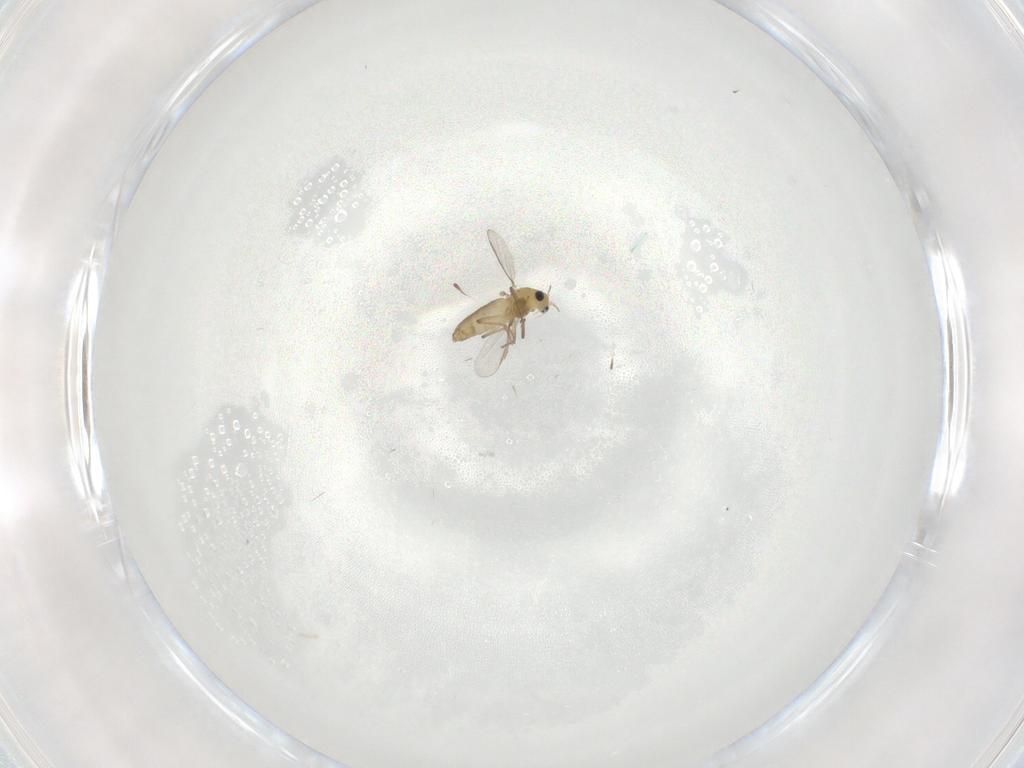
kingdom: Animalia
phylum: Arthropoda
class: Insecta
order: Diptera
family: Chironomidae
